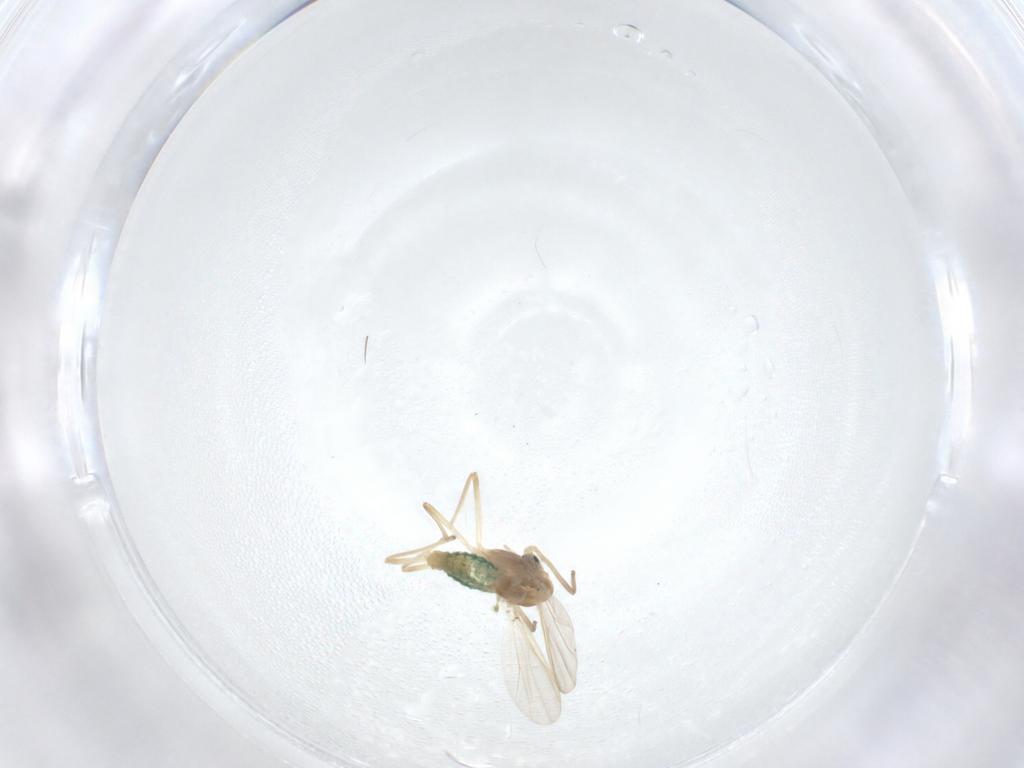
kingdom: Animalia
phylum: Arthropoda
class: Insecta
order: Diptera
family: Chironomidae
